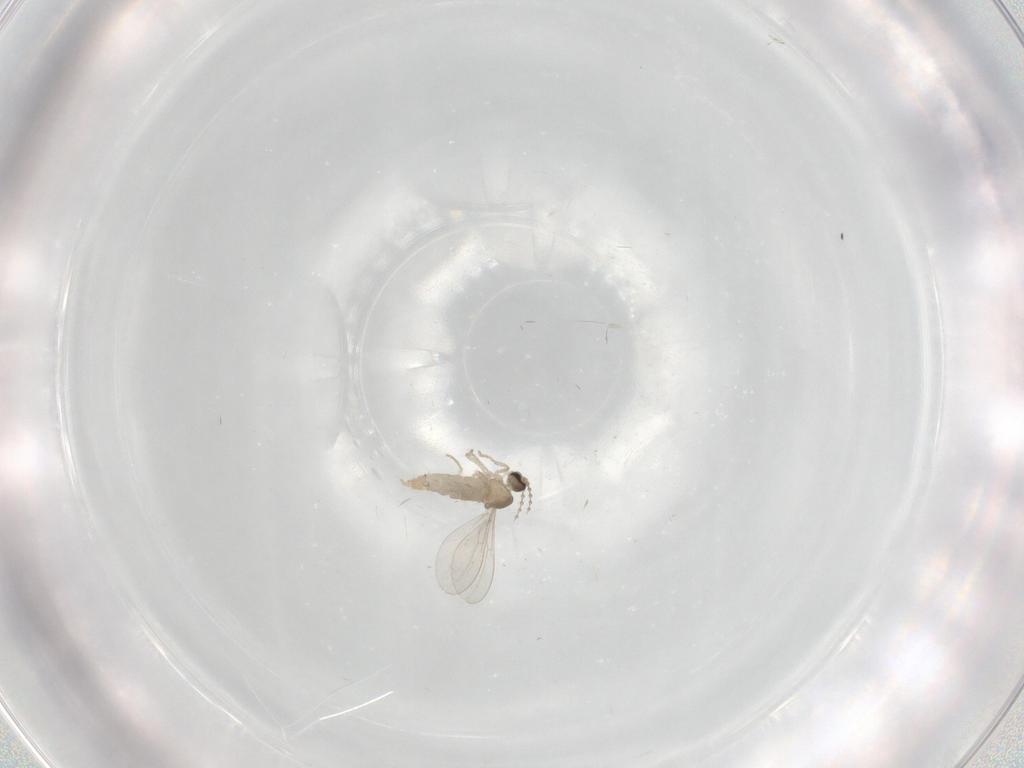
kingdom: Animalia
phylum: Arthropoda
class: Insecta
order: Diptera
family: Cecidomyiidae
